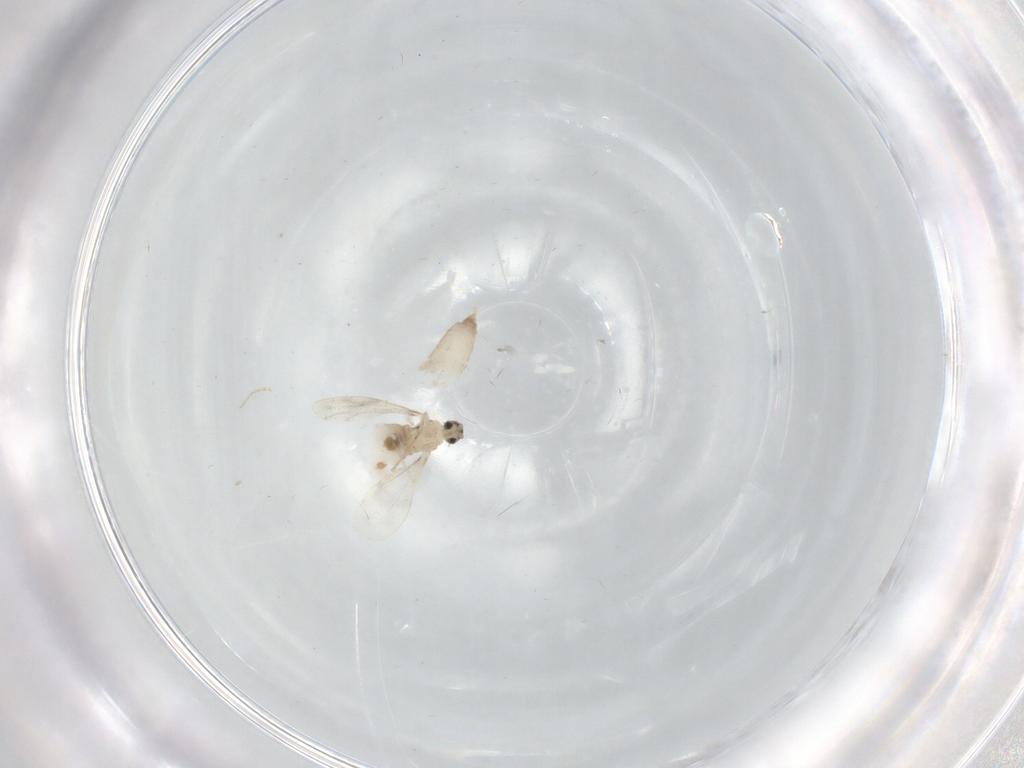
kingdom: Animalia
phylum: Arthropoda
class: Insecta
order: Diptera
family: Cecidomyiidae
